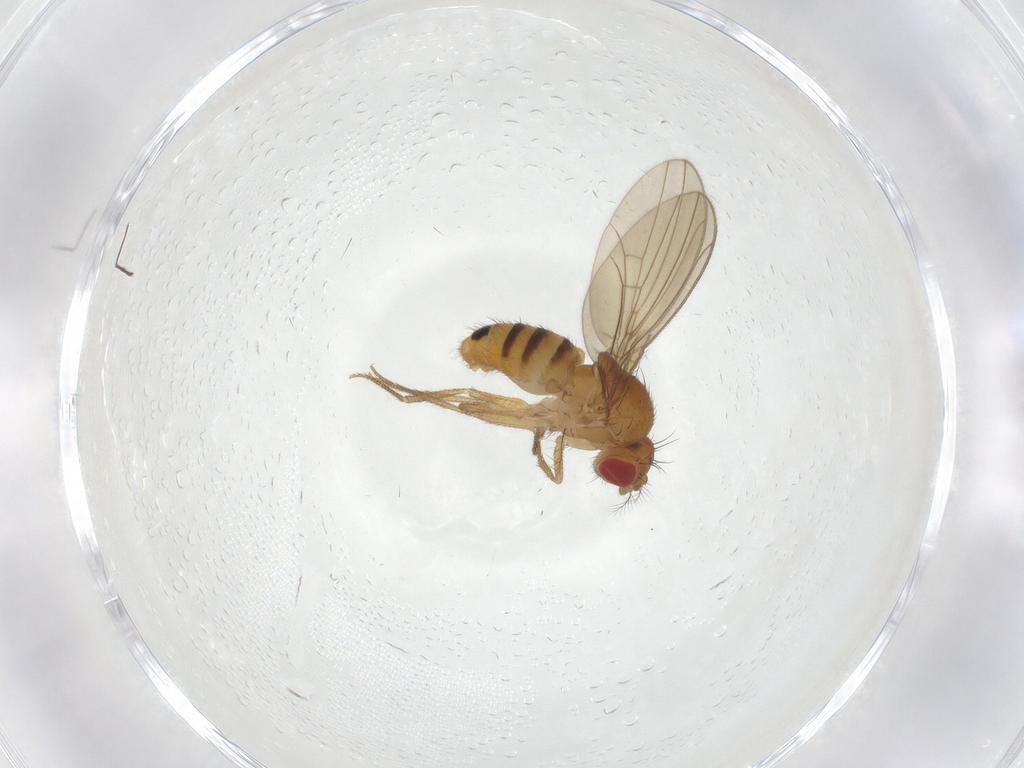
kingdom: Animalia
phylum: Arthropoda
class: Insecta
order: Diptera
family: Drosophilidae
